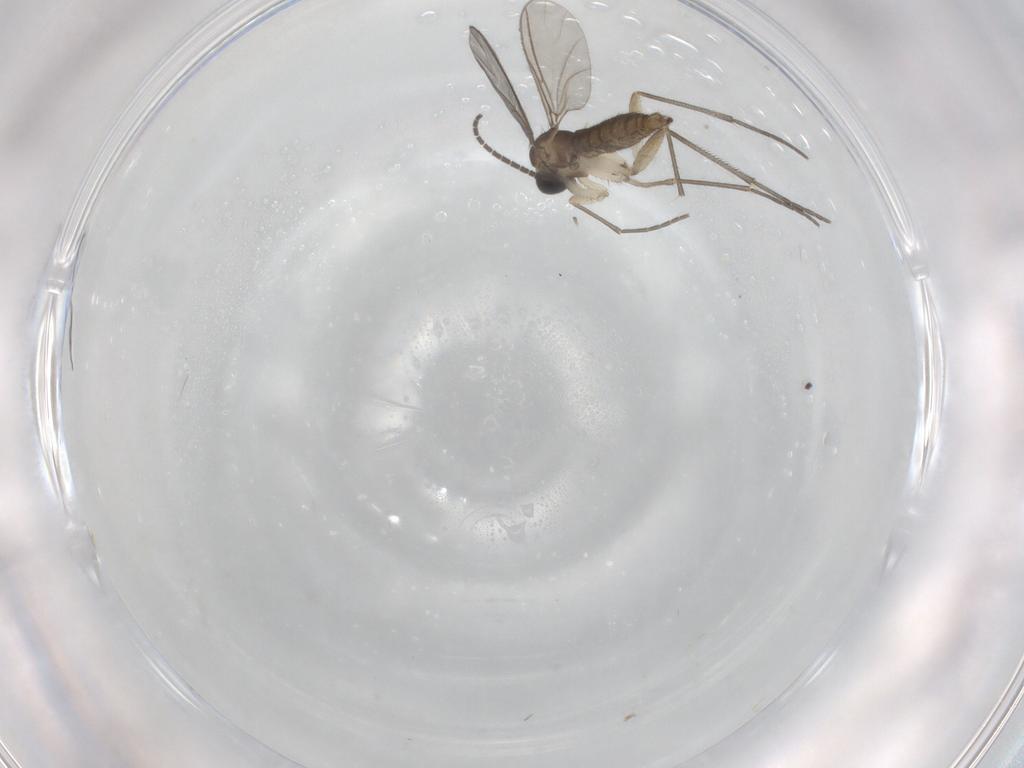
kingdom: Animalia
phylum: Arthropoda
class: Insecta
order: Diptera
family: Sciaridae
